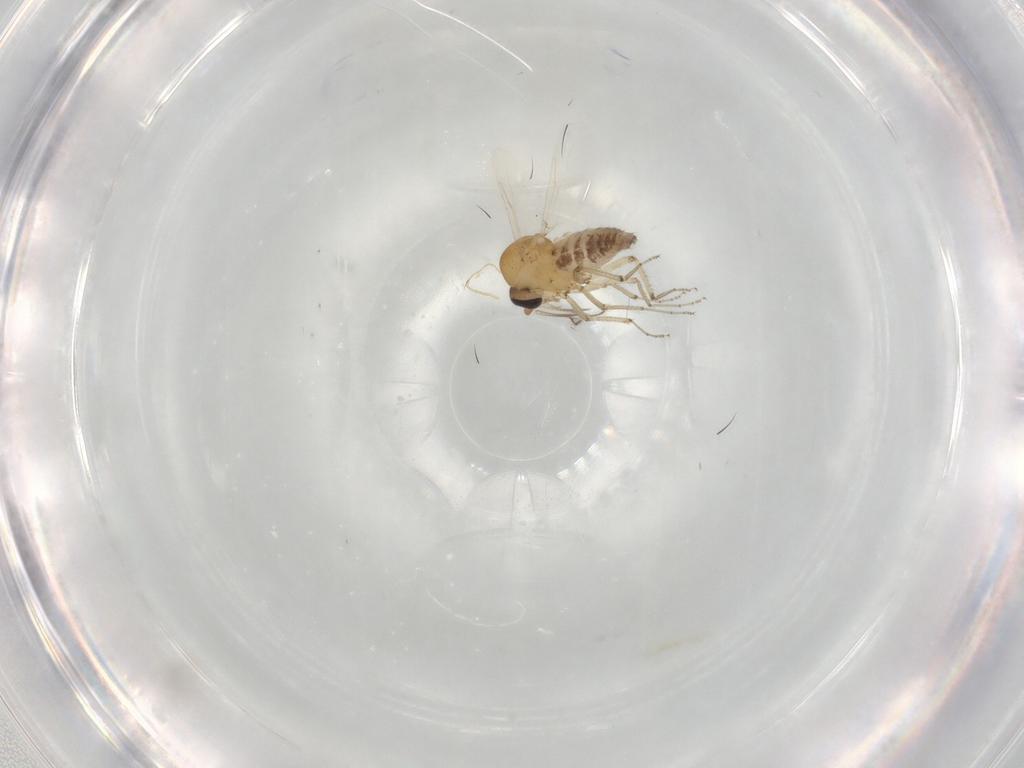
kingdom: Animalia
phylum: Arthropoda
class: Insecta
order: Diptera
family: Ceratopogonidae
